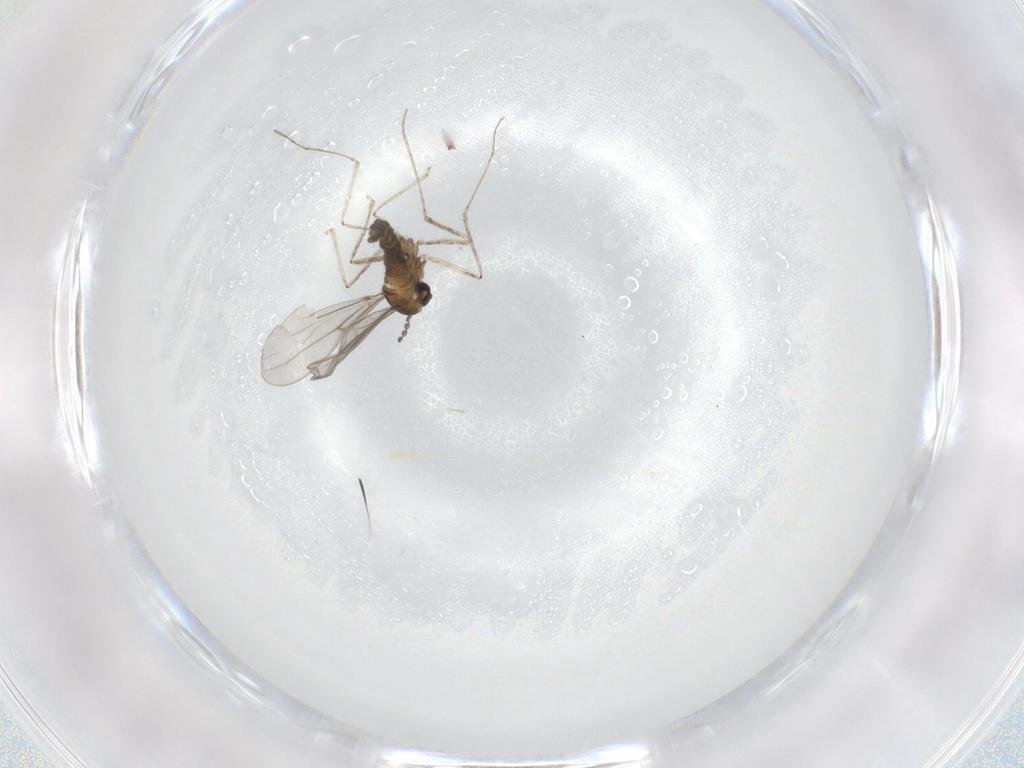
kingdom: Animalia
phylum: Arthropoda
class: Insecta
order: Diptera
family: Cecidomyiidae
